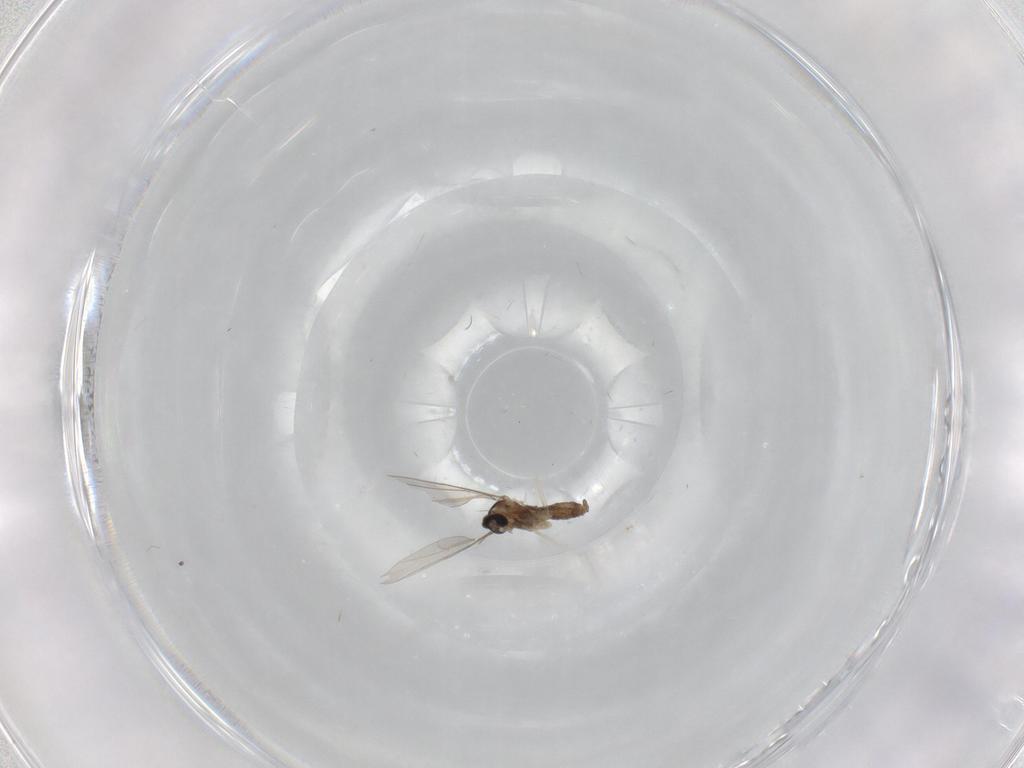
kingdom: Animalia
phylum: Arthropoda
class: Insecta
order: Diptera
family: Cecidomyiidae
